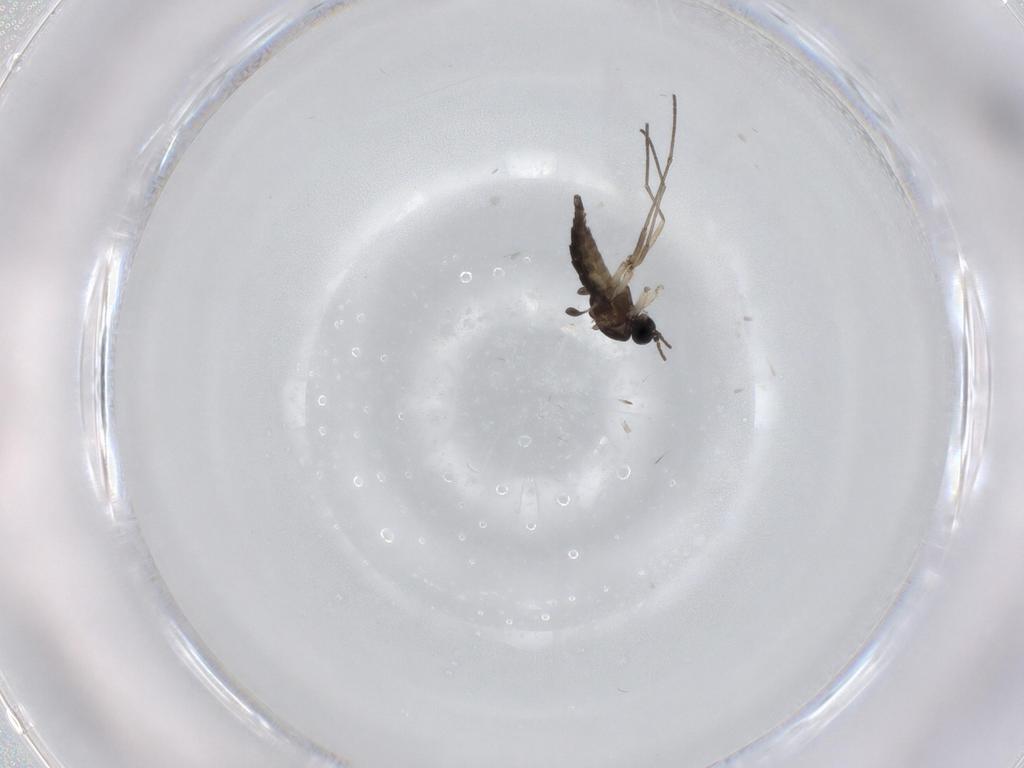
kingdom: Animalia
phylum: Arthropoda
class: Insecta
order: Diptera
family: Sciaridae
